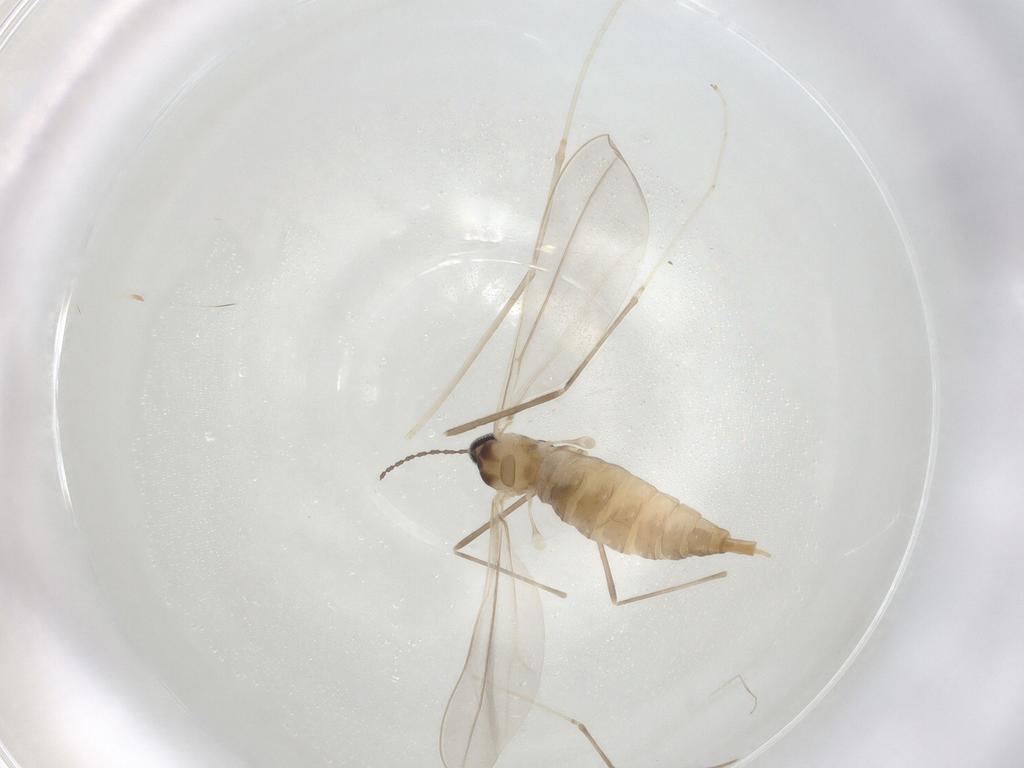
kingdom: Animalia
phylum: Arthropoda
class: Insecta
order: Diptera
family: Cecidomyiidae
